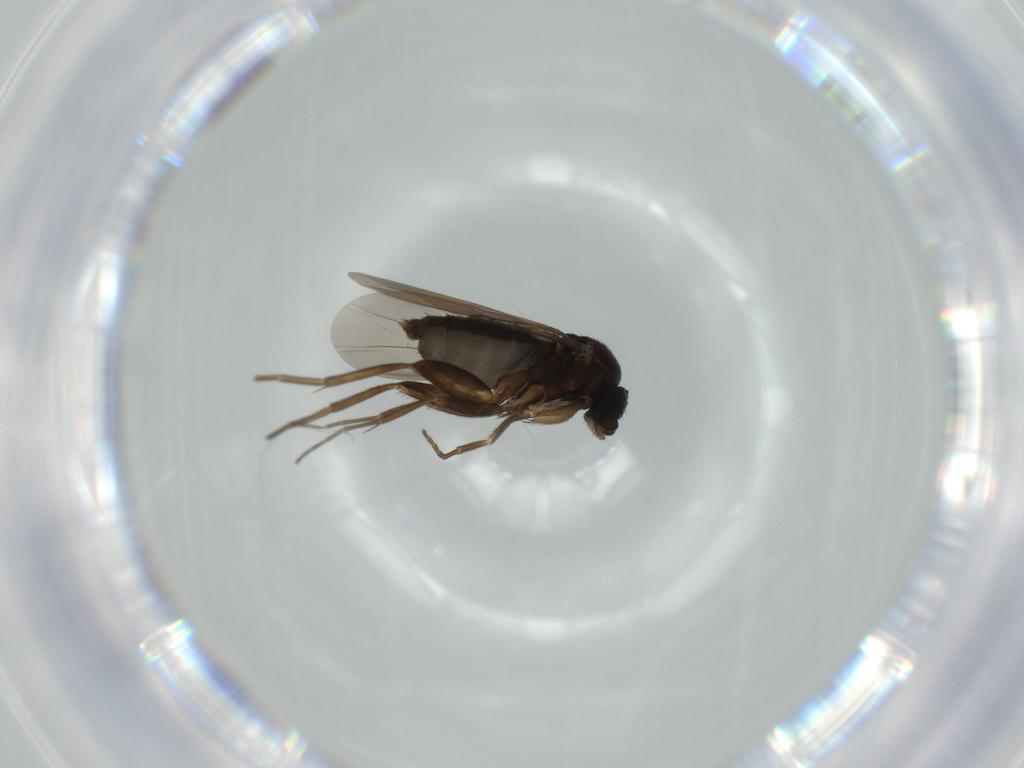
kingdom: Animalia
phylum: Arthropoda
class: Insecta
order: Diptera
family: Phoridae
